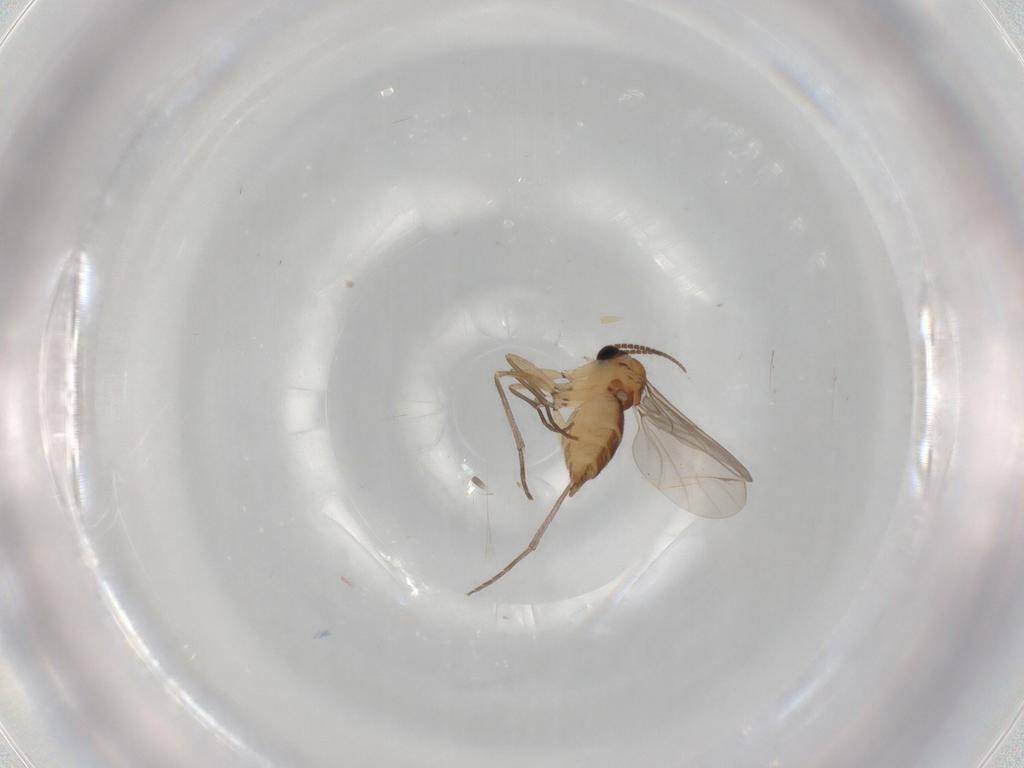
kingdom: Animalia
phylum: Arthropoda
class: Insecta
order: Diptera
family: Sciaridae
